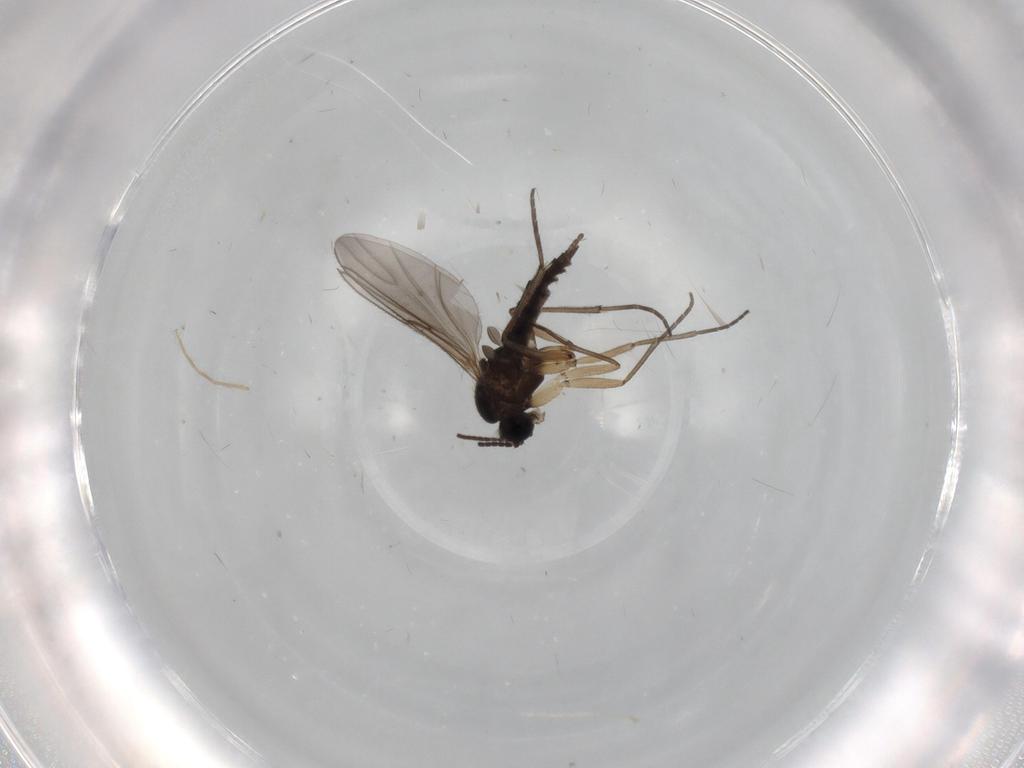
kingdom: Animalia
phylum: Arthropoda
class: Insecta
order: Diptera
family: Sciaridae
